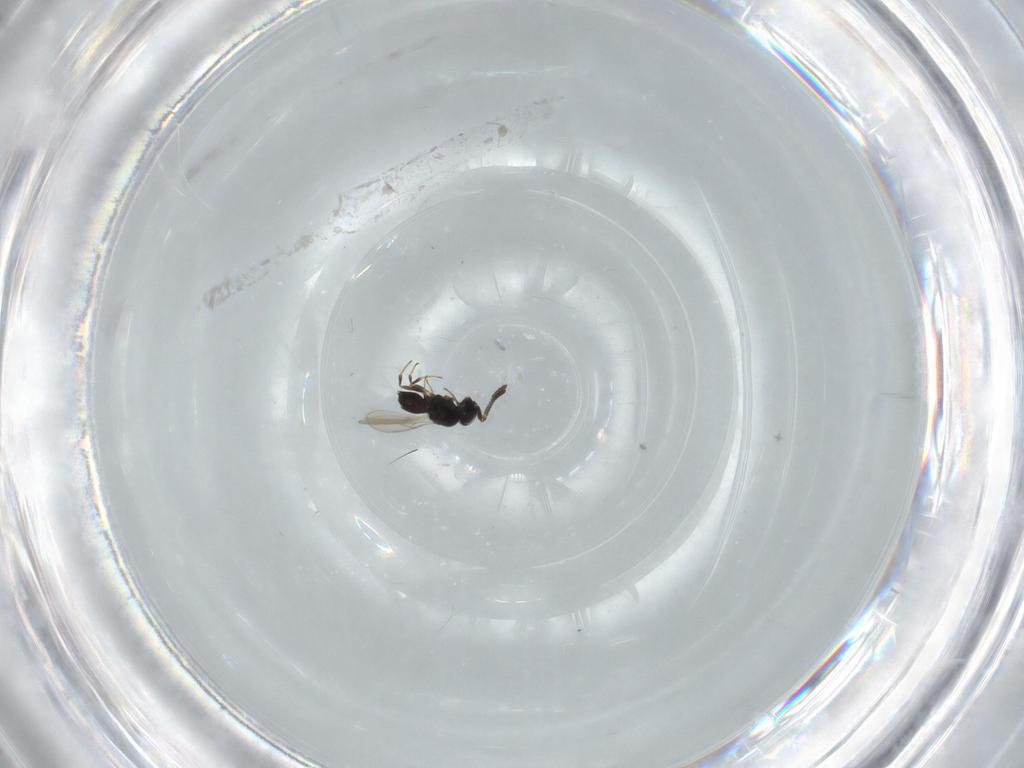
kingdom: Animalia
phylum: Arthropoda
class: Insecta
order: Hymenoptera
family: Scelionidae
